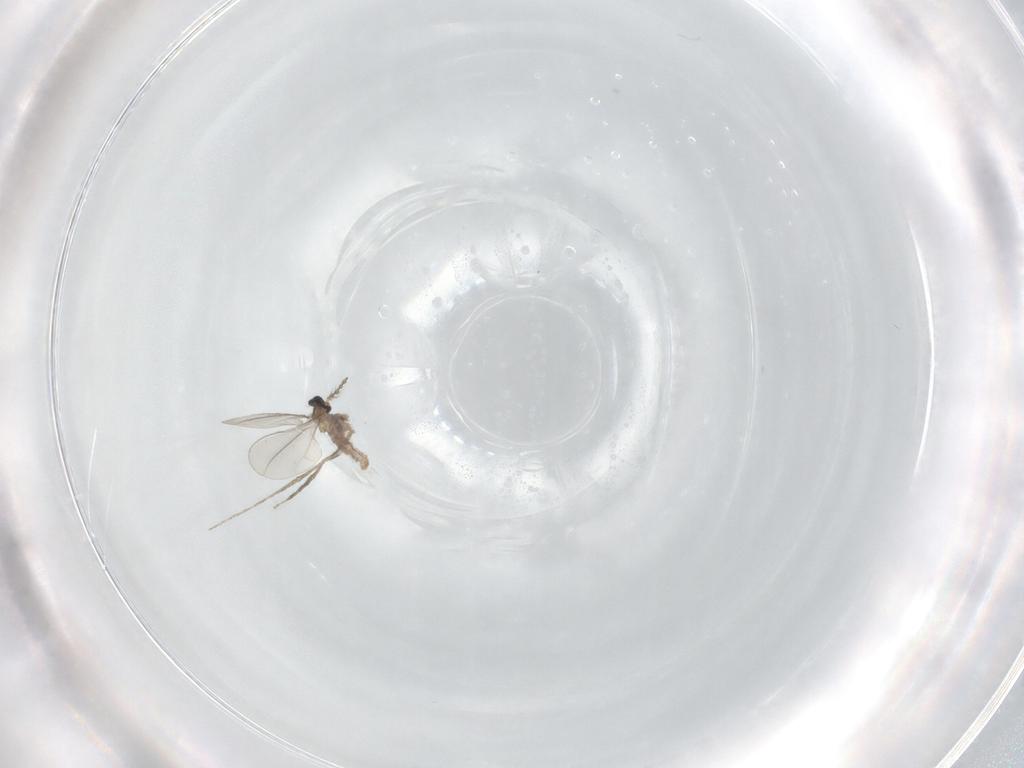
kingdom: Animalia
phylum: Arthropoda
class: Insecta
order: Diptera
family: Cecidomyiidae
